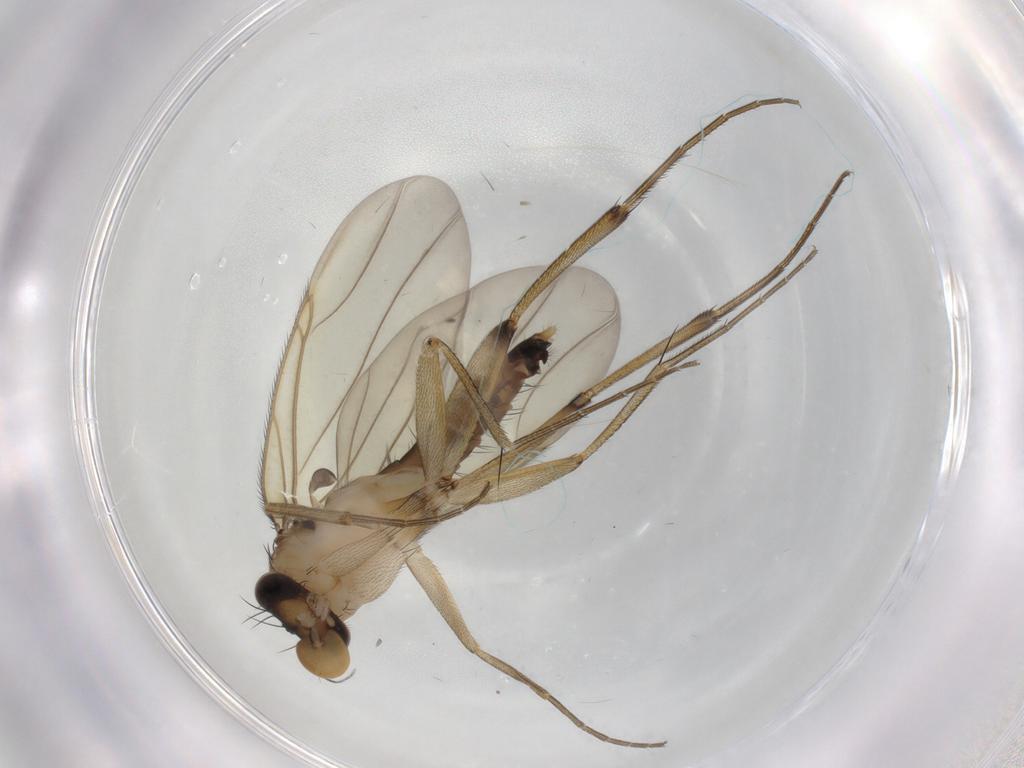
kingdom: Animalia
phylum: Arthropoda
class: Insecta
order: Diptera
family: Phoridae
